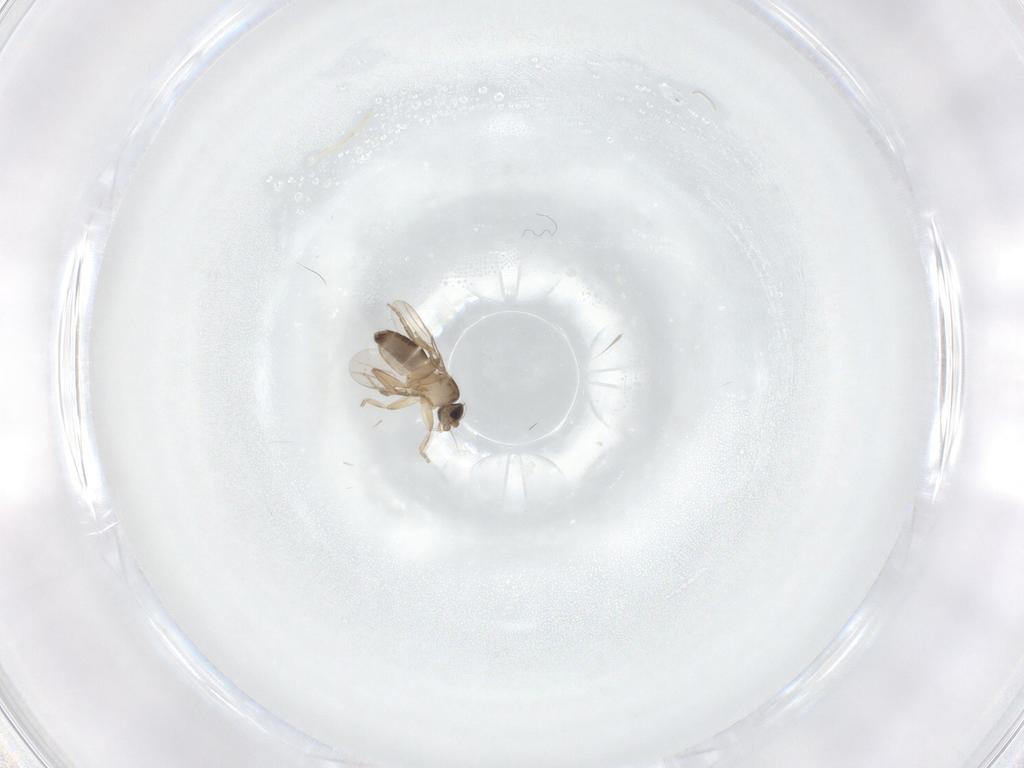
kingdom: Animalia
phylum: Arthropoda
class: Insecta
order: Diptera
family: Phoridae
